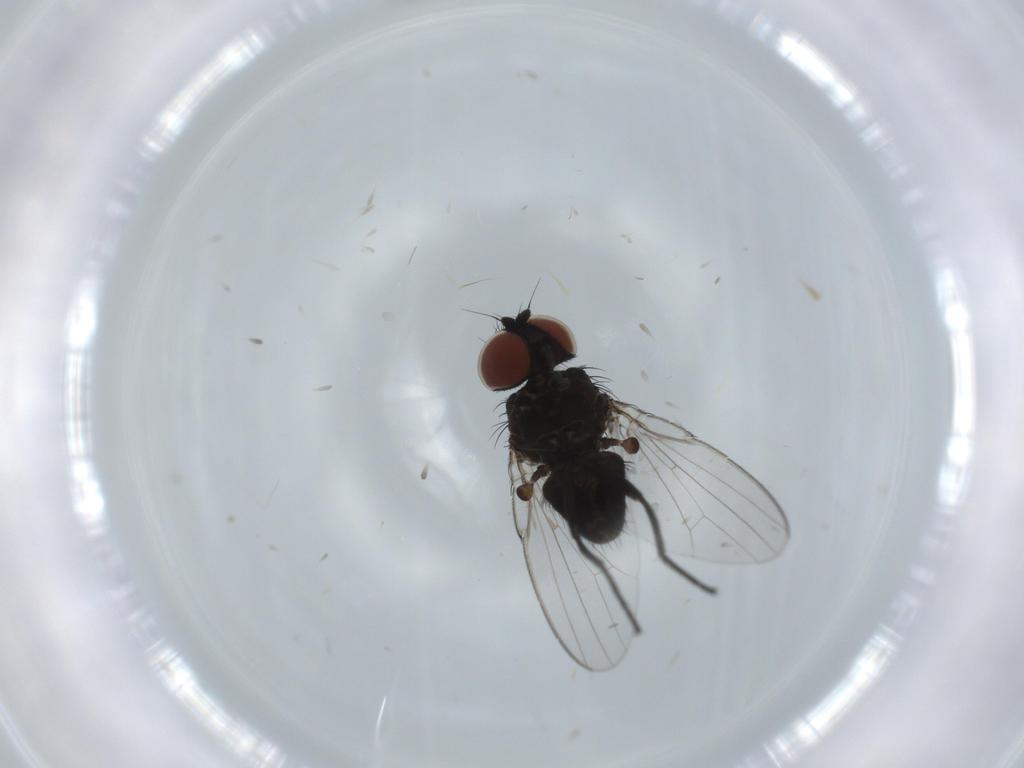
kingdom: Animalia
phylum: Arthropoda
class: Insecta
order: Diptera
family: Milichiidae
